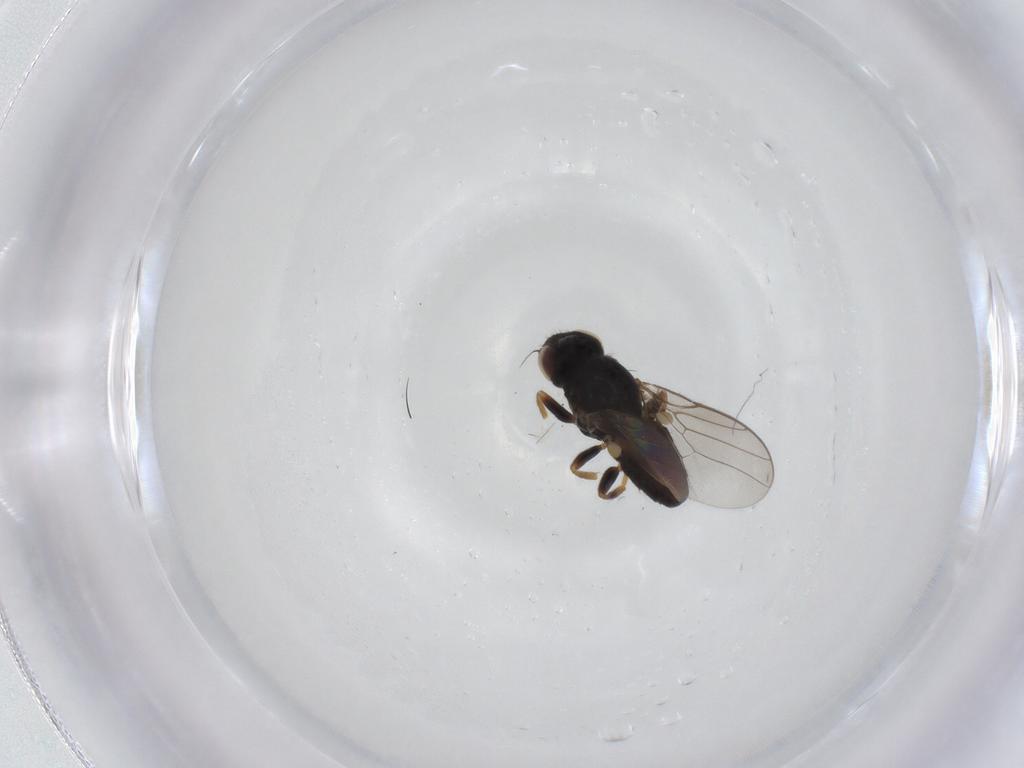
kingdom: Animalia
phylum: Arthropoda
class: Insecta
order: Diptera
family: Chloropidae
